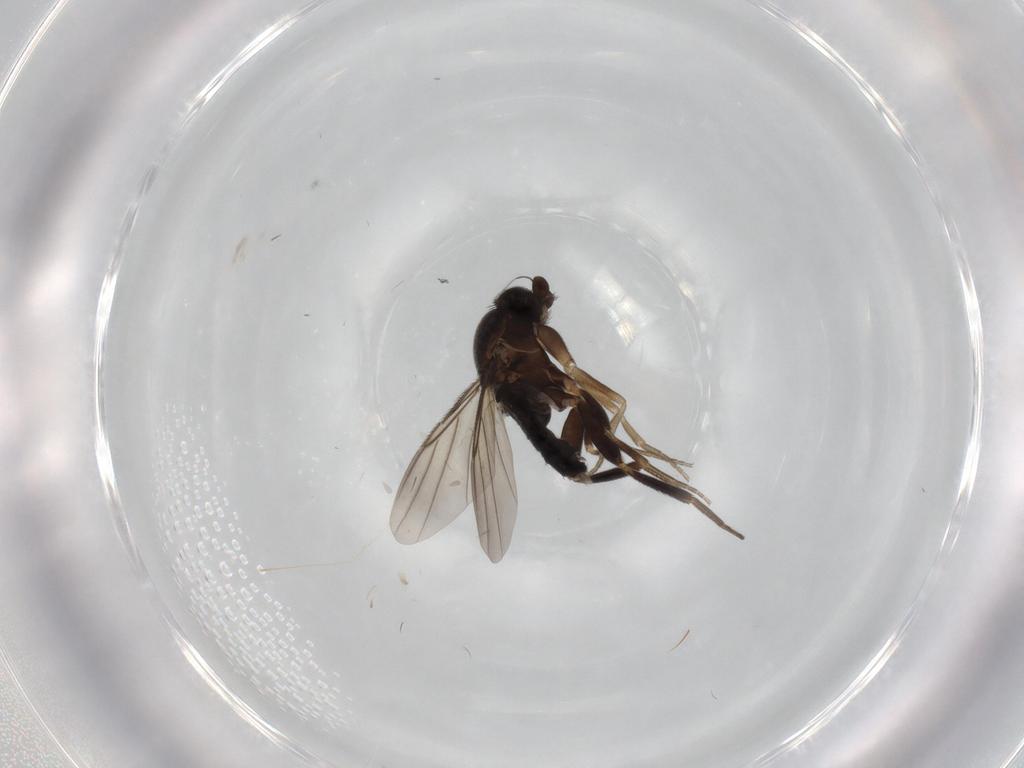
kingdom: Animalia
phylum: Arthropoda
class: Insecta
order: Diptera
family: Phoridae
